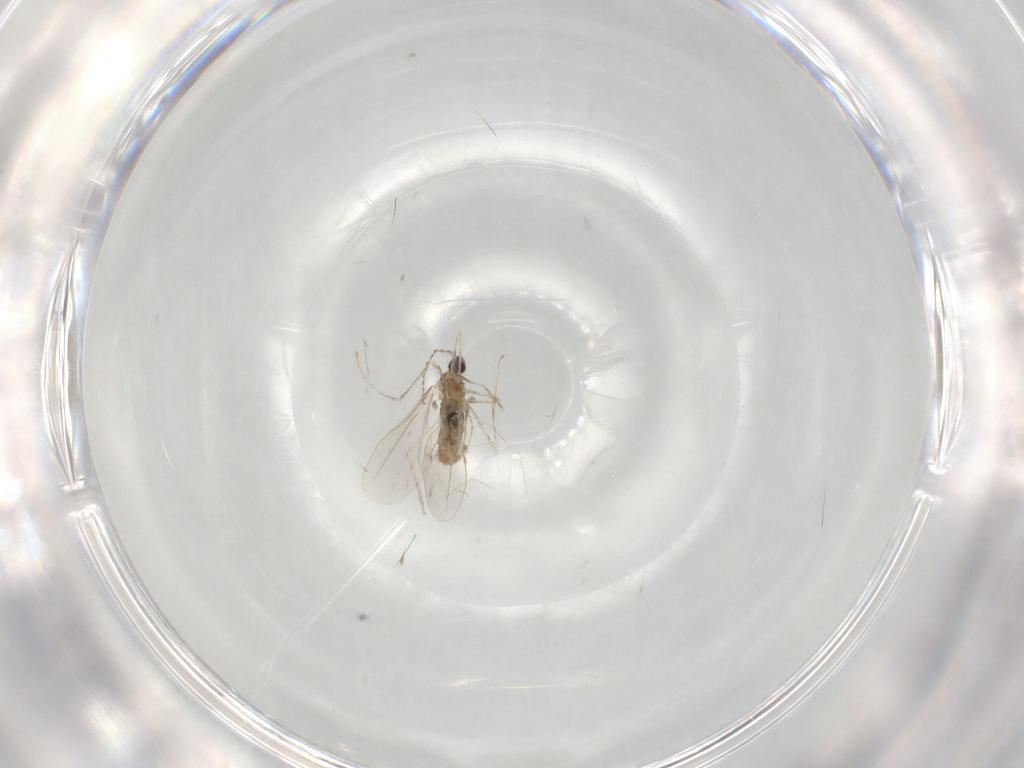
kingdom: Animalia
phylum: Arthropoda
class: Insecta
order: Diptera
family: Cecidomyiidae
